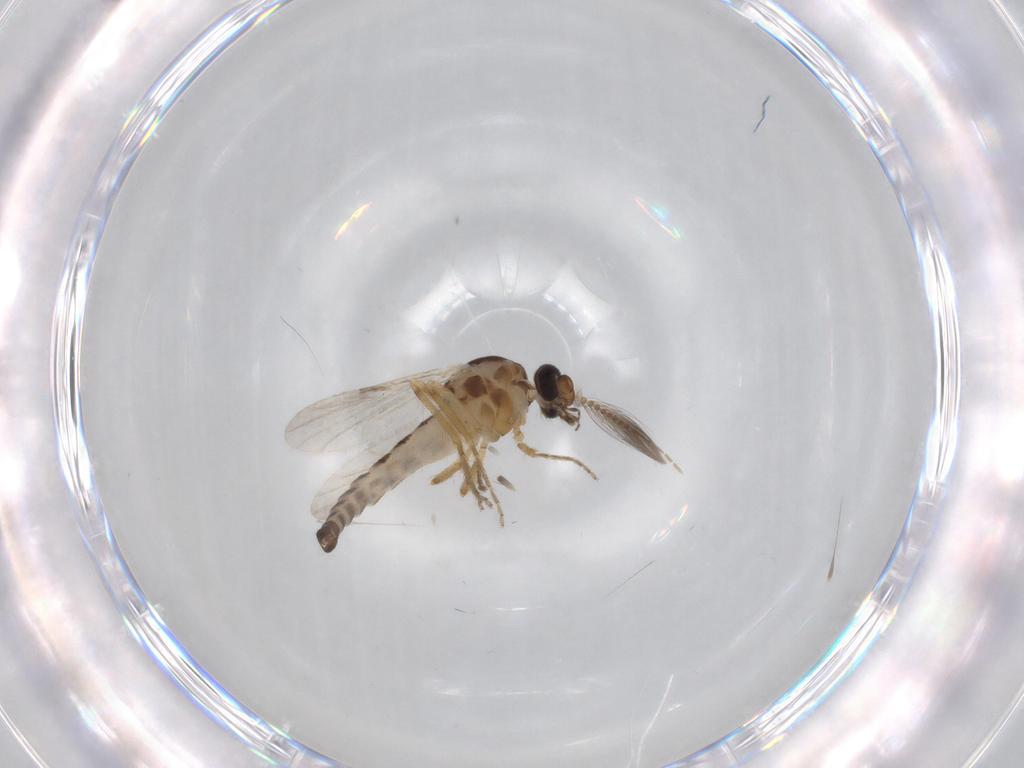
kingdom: Animalia
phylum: Arthropoda
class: Insecta
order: Diptera
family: Ceratopogonidae
